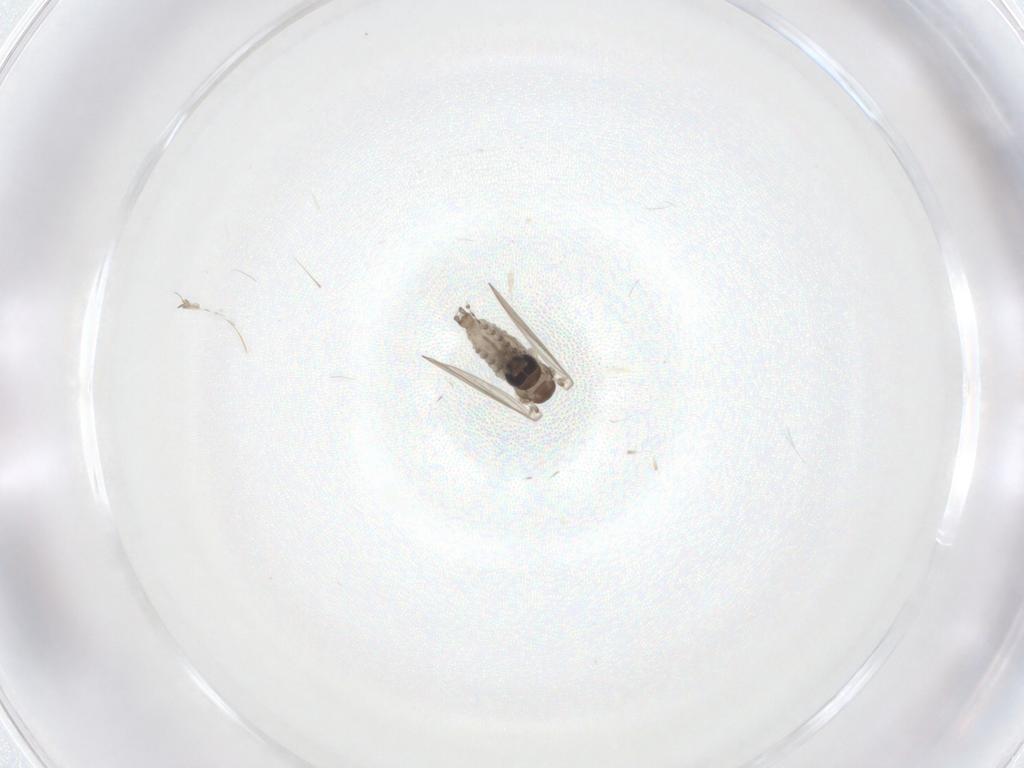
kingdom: Animalia
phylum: Arthropoda
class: Insecta
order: Diptera
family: Psychodidae
